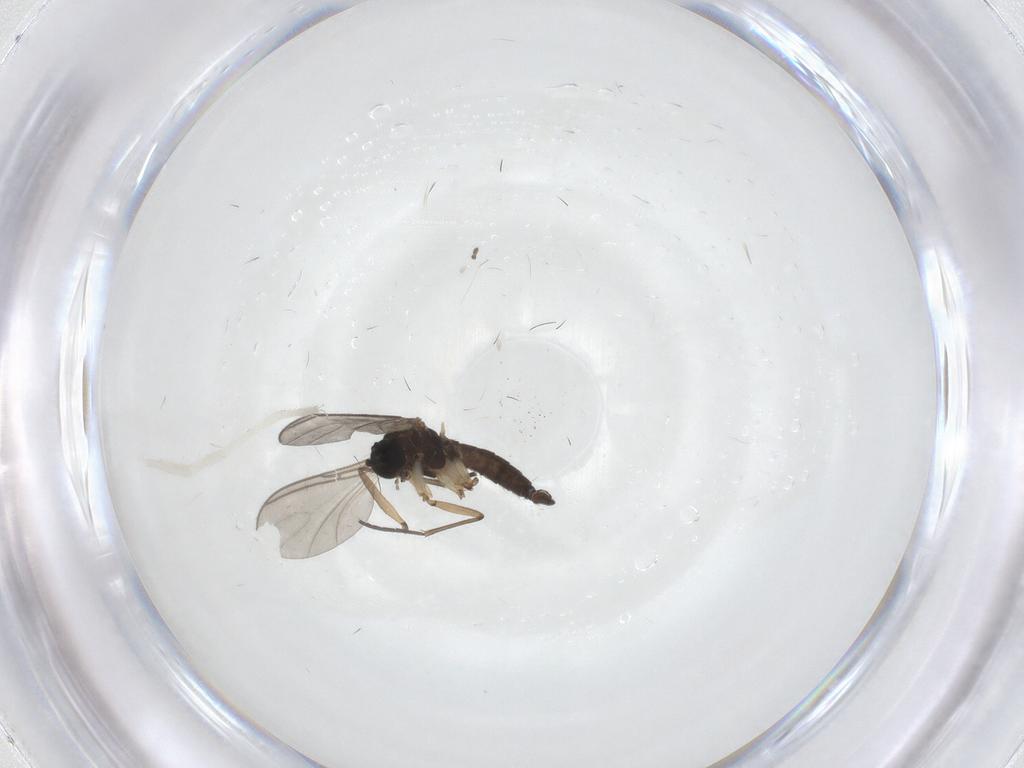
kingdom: Animalia
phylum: Arthropoda
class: Insecta
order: Diptera
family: Sciaridae
